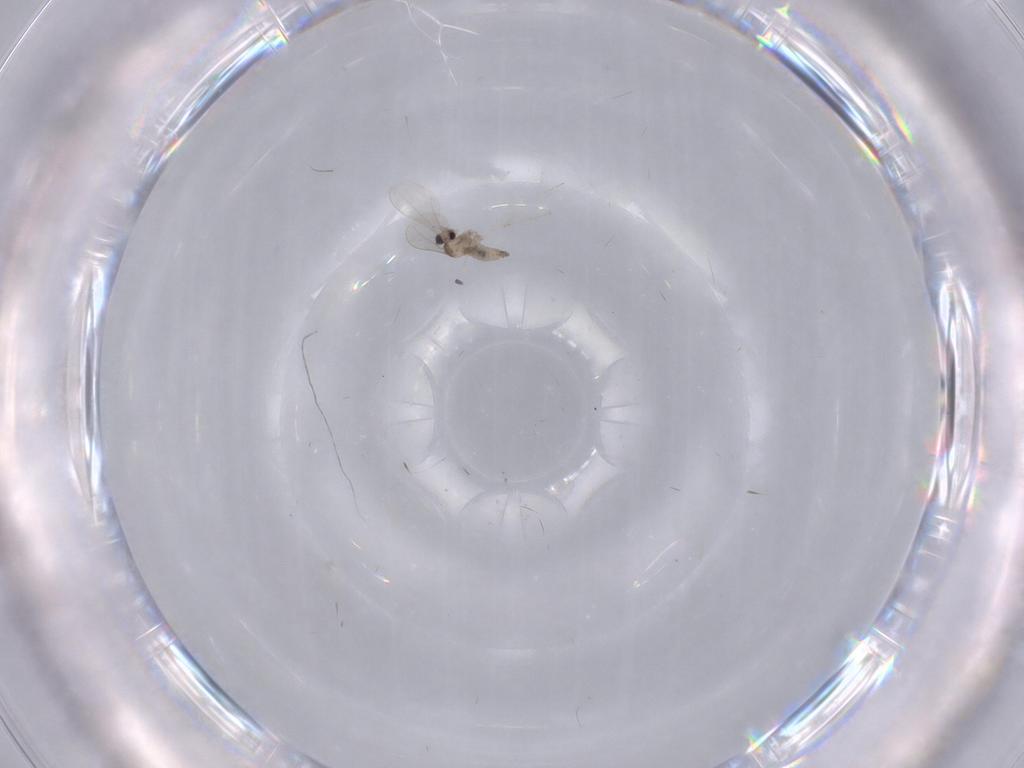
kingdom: Animalia
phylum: Arthropoda
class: Insecta
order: Diptera
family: Cecidomyiidae
